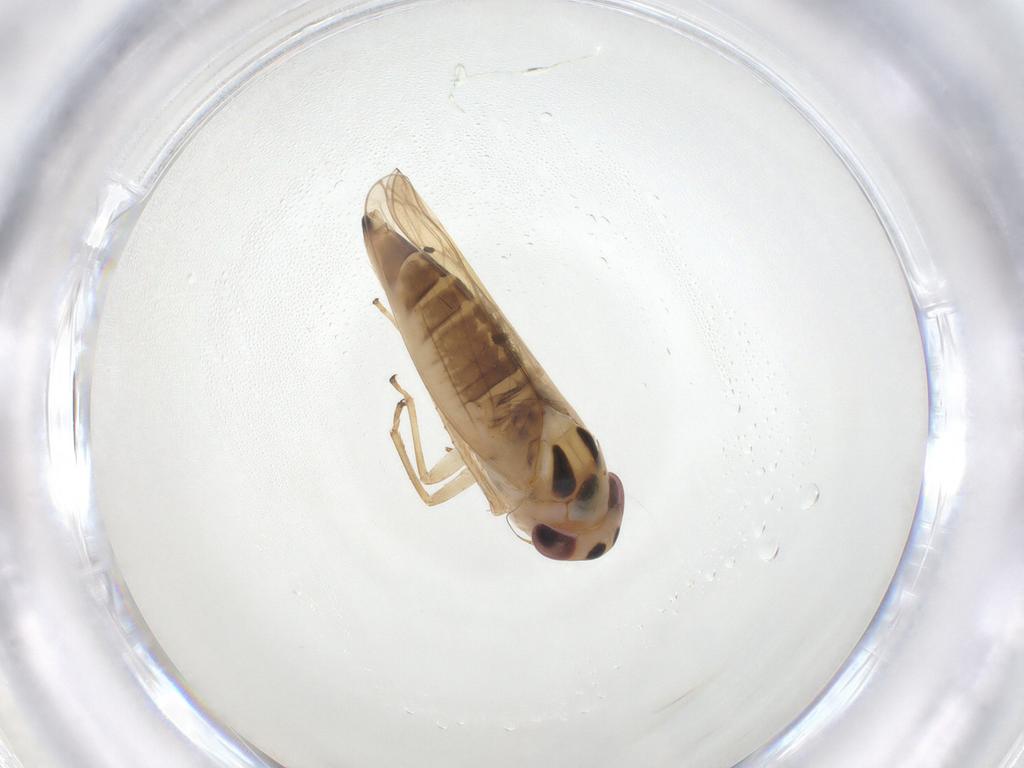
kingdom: Animalia
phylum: Arthropoda
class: Insecta
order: Hemiptera
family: Cicadellidae
